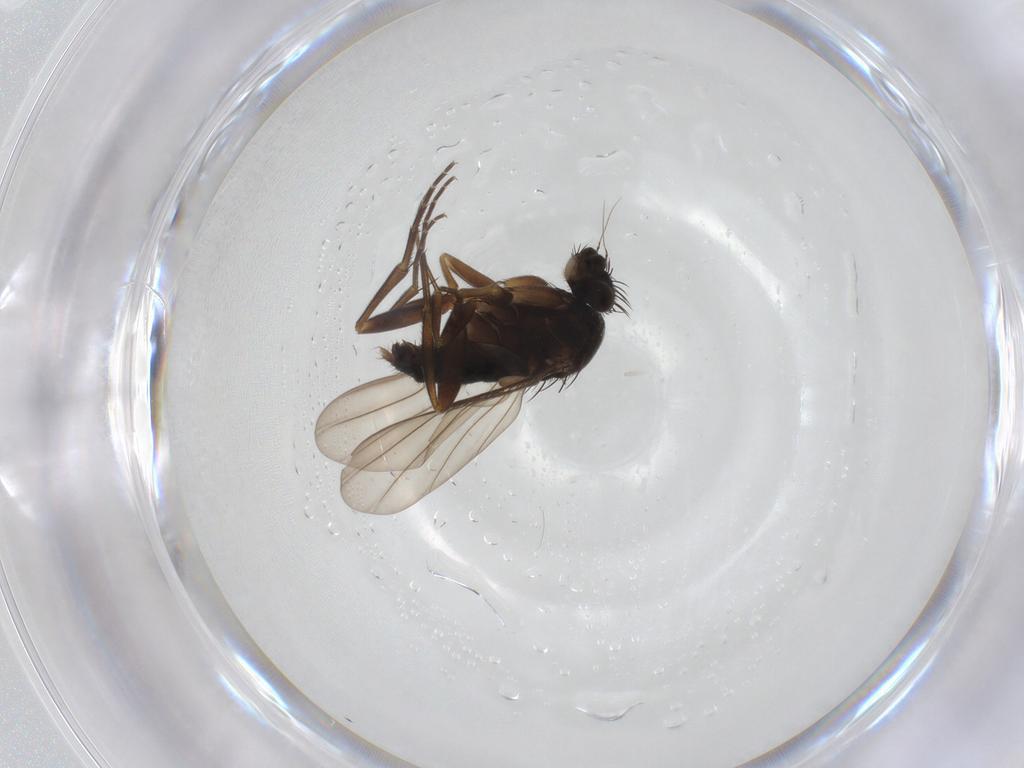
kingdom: Animalia
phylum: Arthropoda
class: Insecta
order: Diptera
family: Phoridae
